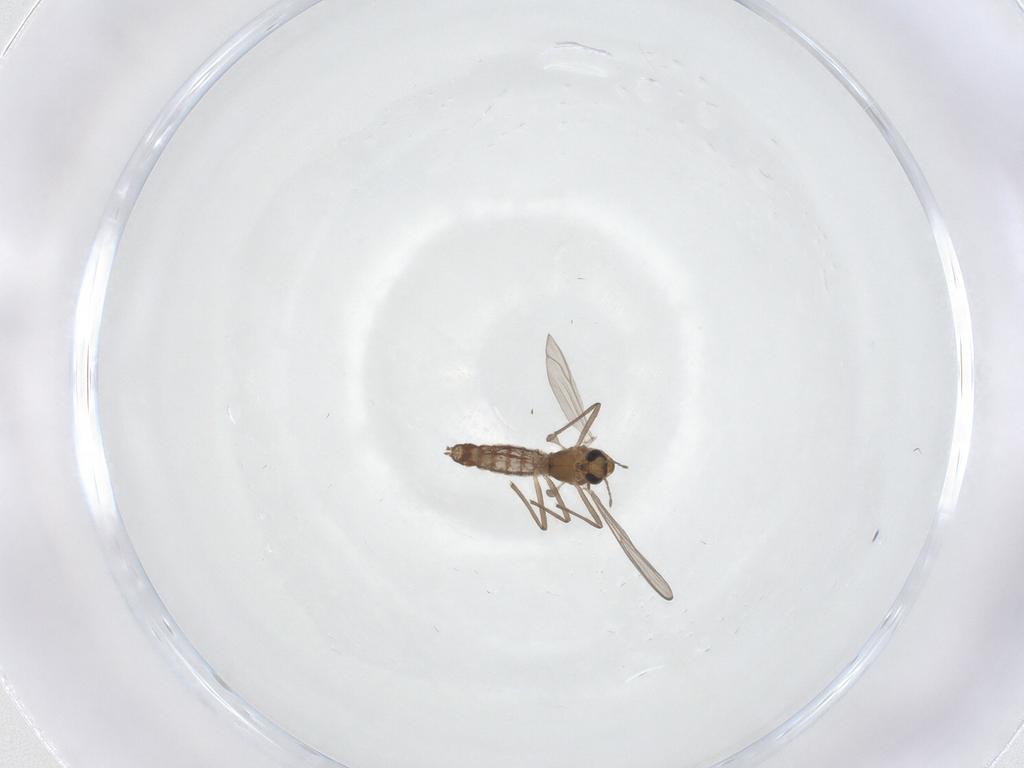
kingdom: Animalia
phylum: Arthropoda
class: Insecta
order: Diptera
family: Chironomidae
